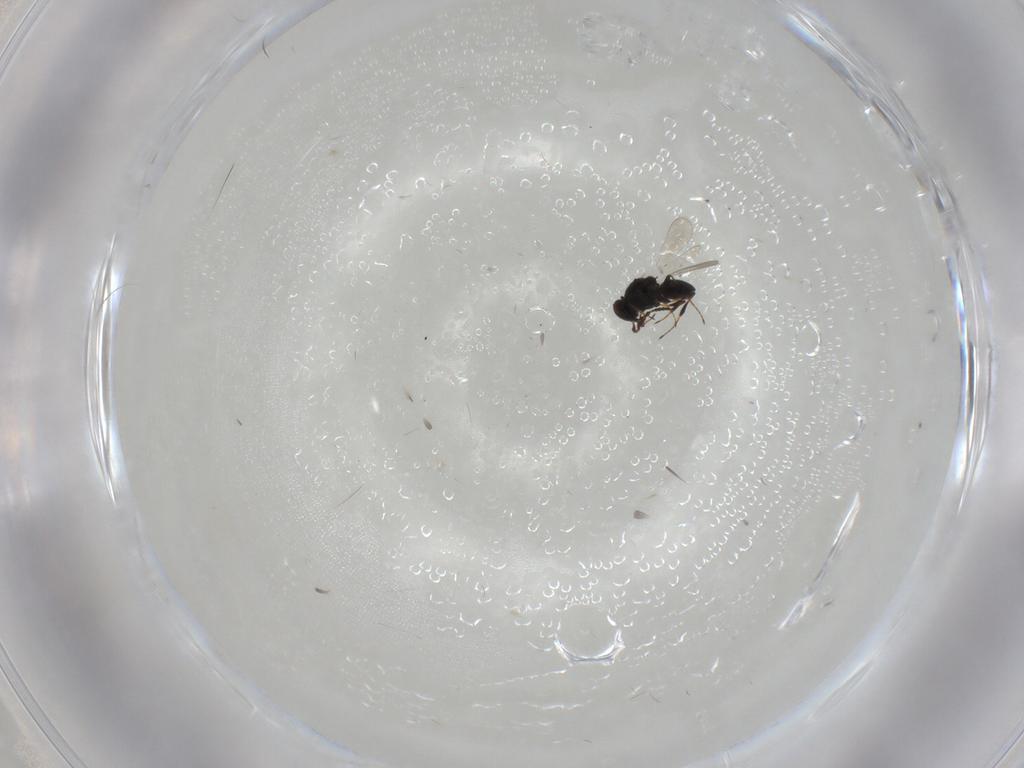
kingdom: Animalia
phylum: Arthropoda
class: Insecta
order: Hymenoptera
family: Platygastridae
